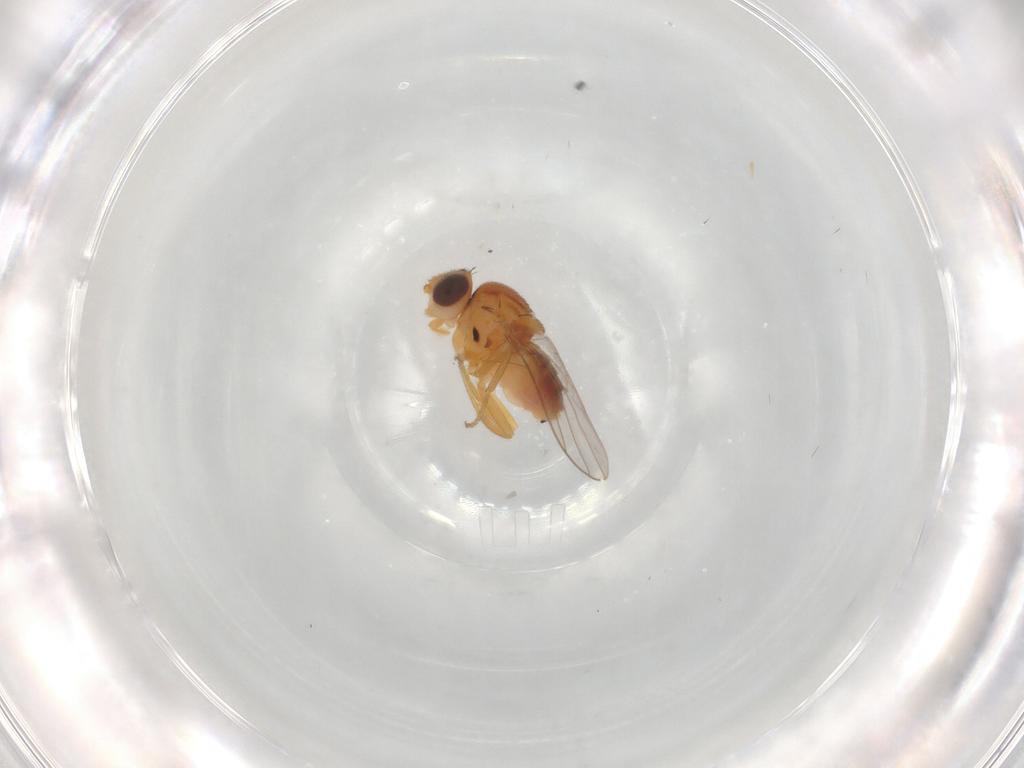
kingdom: Animalia
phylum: Arthropoda
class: Insecta
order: Diptera
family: Chloropidae
